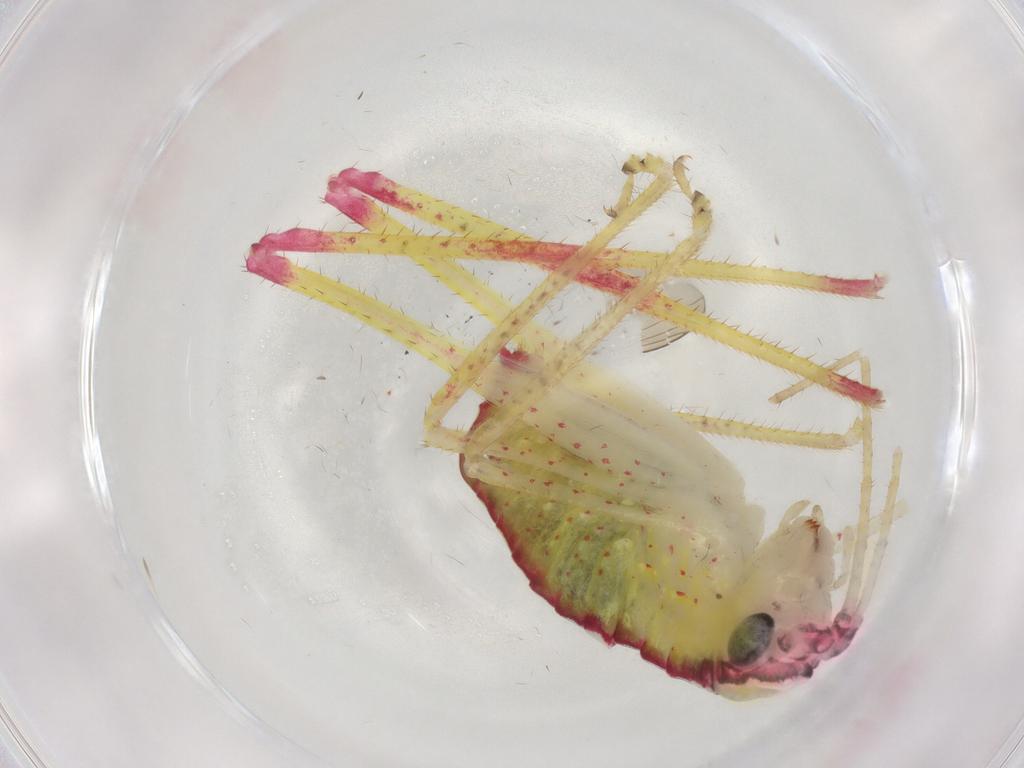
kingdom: Animalia
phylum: Arthropoda
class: Insecta
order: Orthoptera
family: Tettigoniidae
